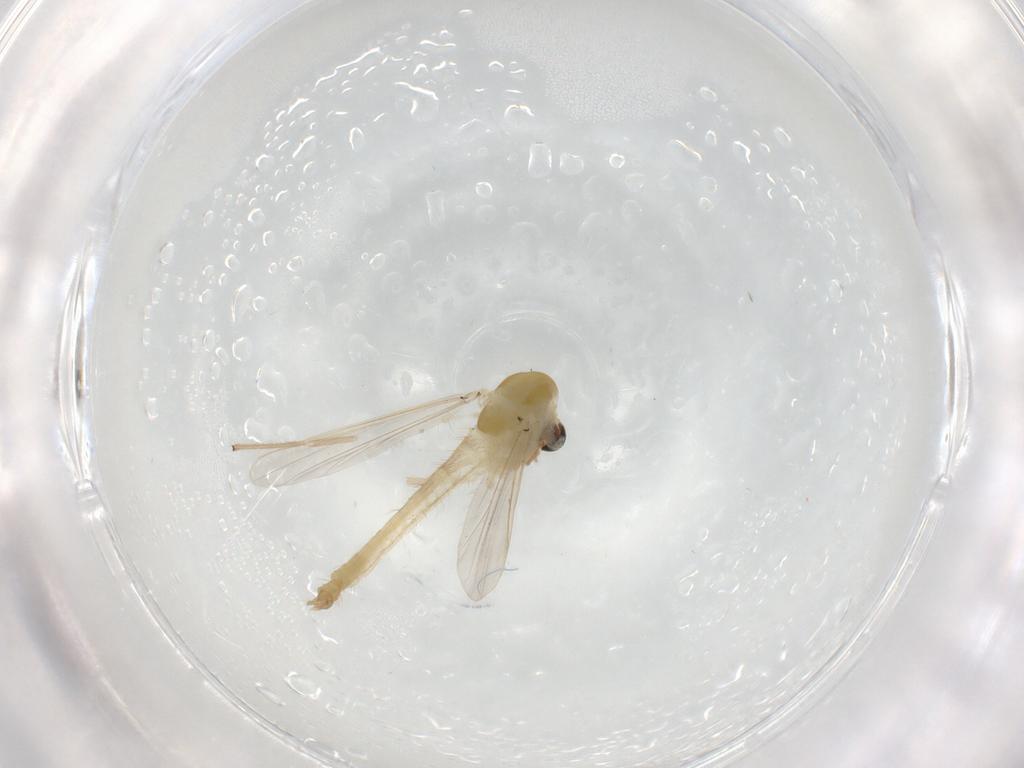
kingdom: Animalia
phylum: Arthropoda
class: Insecta
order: Diptera
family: Chironomidae
